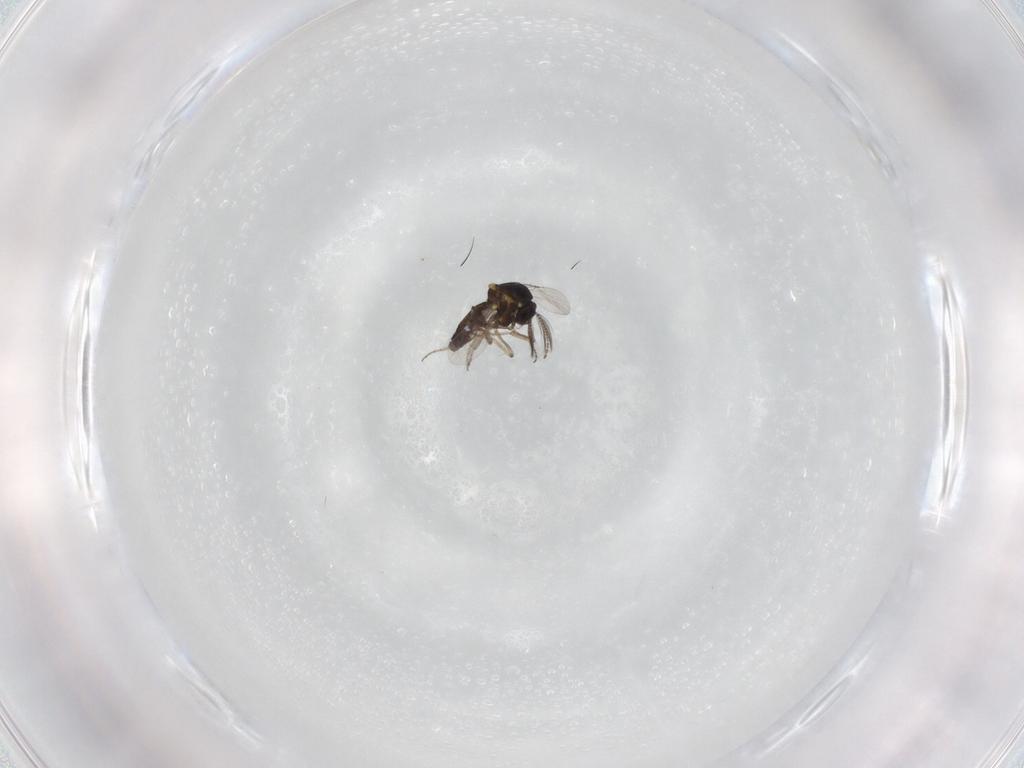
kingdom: Animalia
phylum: Arthropoda
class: Insecta
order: Diptera
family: Ceratopogonidae
